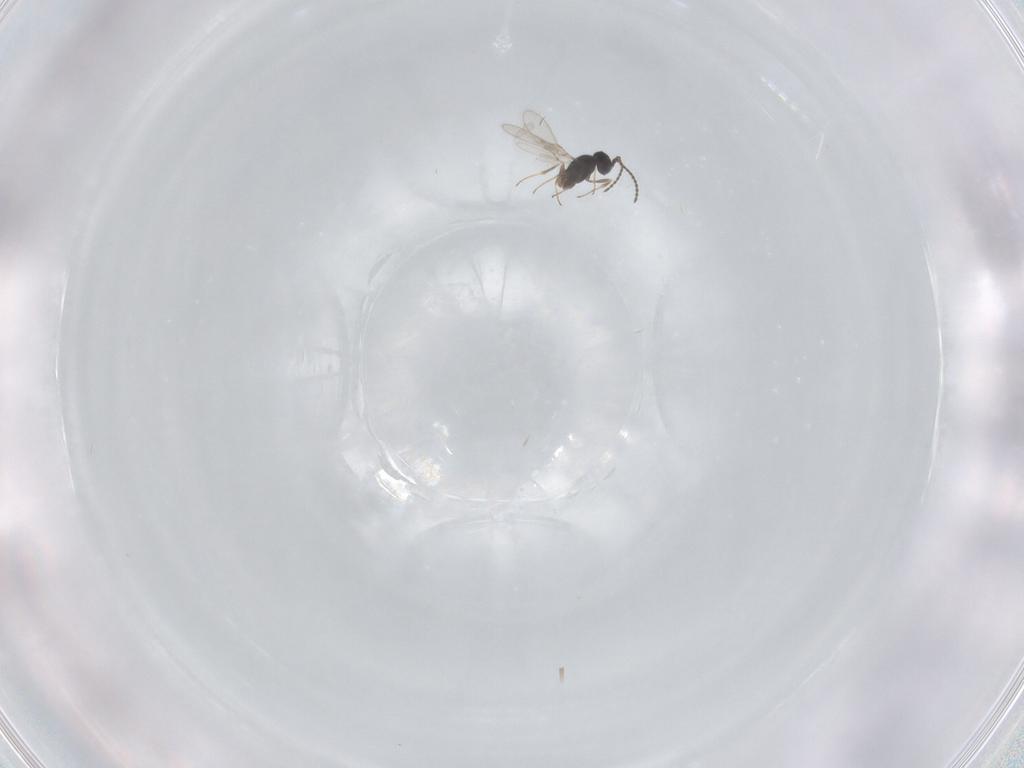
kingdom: Animalia
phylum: Arthropoda
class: Insecta
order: Hymenoptera
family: Scelionidae
